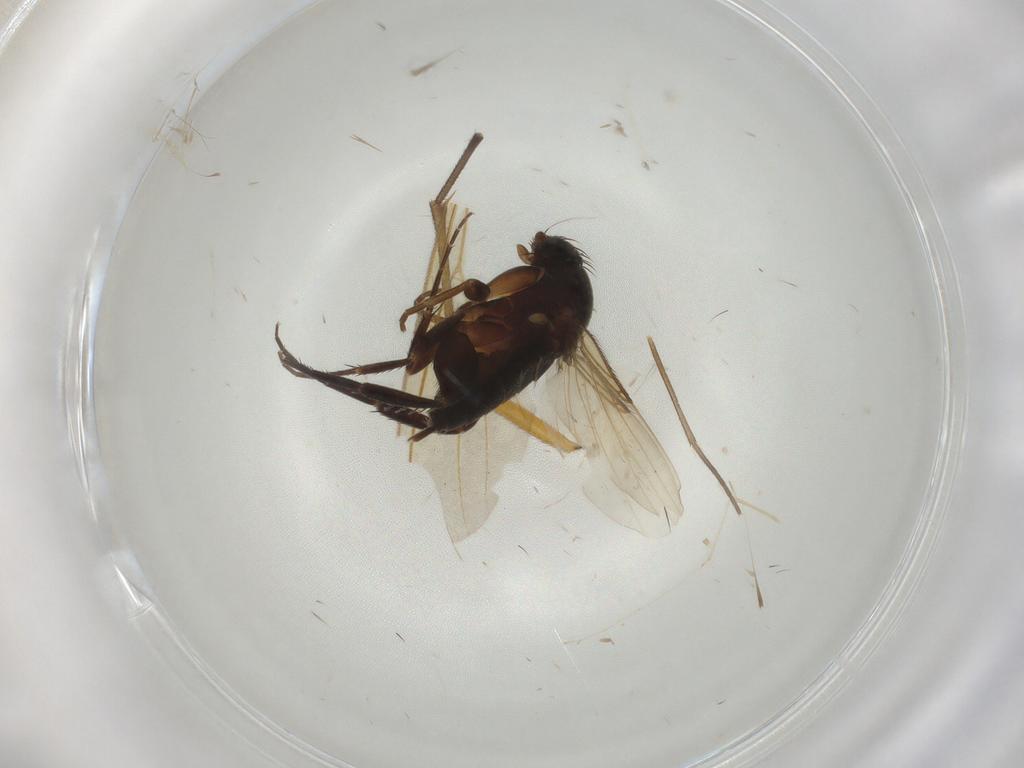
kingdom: Animalia
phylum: Arthropoda
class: Insecta
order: Diptera
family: Phoridae
